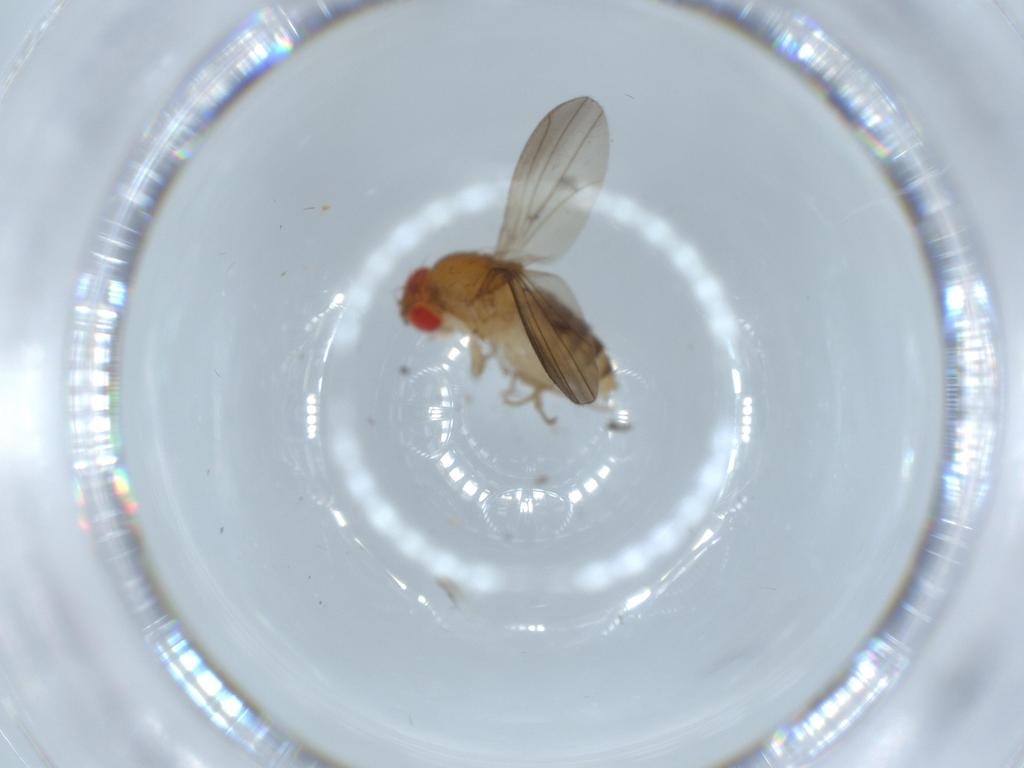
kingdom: Animalia
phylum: Arthropoda
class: Insecta
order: Diptera
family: Drosophilidae
